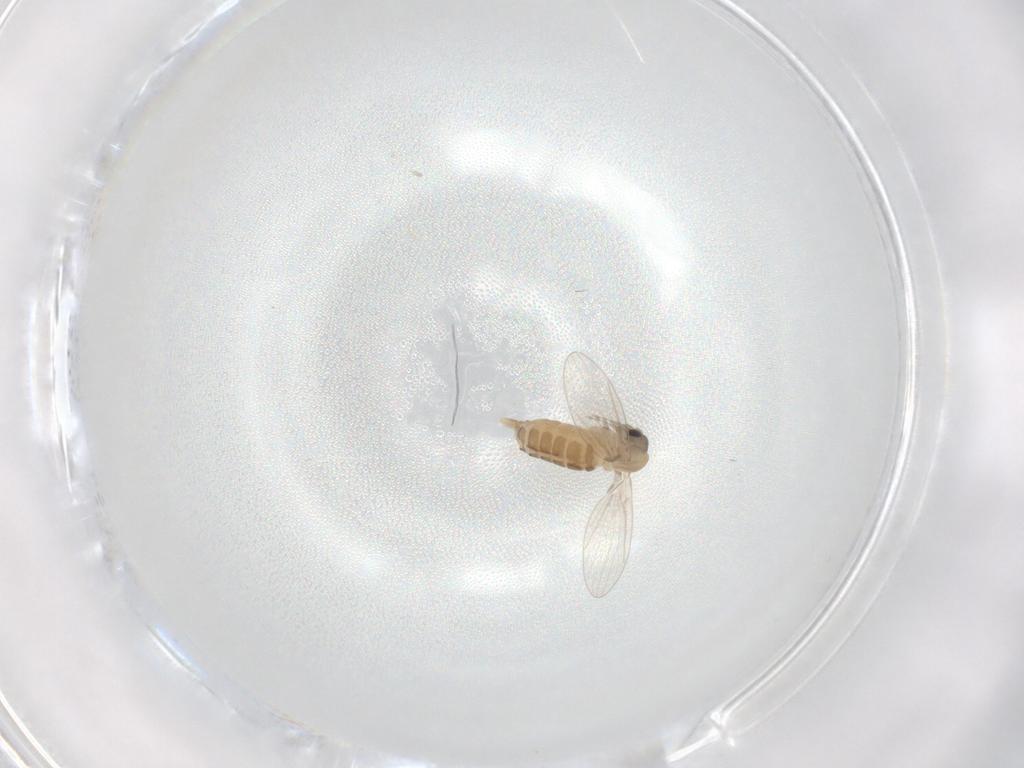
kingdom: Animalia
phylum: Arthropoda
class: Insecta
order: Diptera
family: Psychodidae
